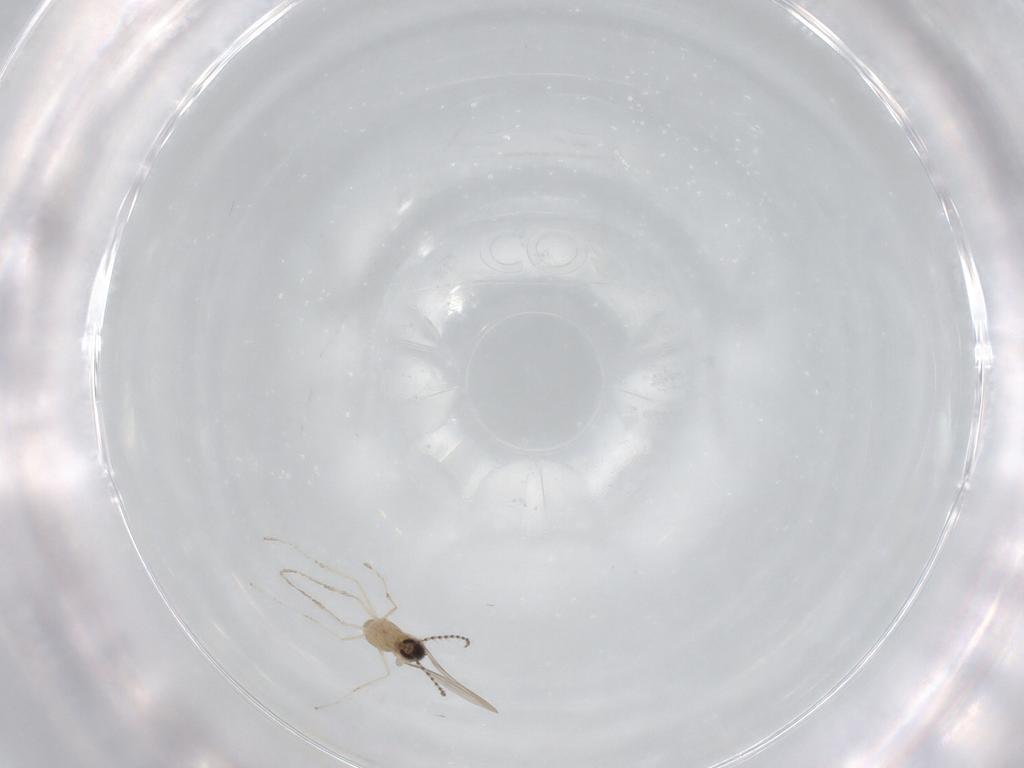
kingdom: Animalia
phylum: Arthropoda
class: Insecta
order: Diptera
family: Cecidomyiidae
